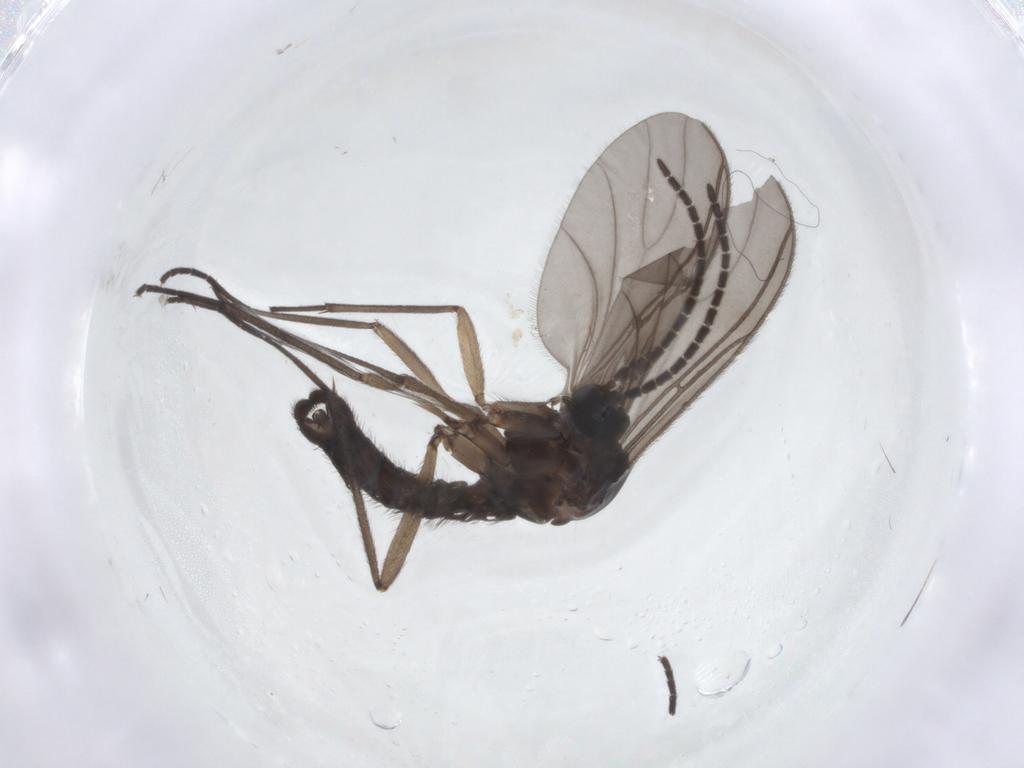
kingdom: Animalia
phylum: Arthropoda
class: Insecta
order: Diptera
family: Sciaridae
